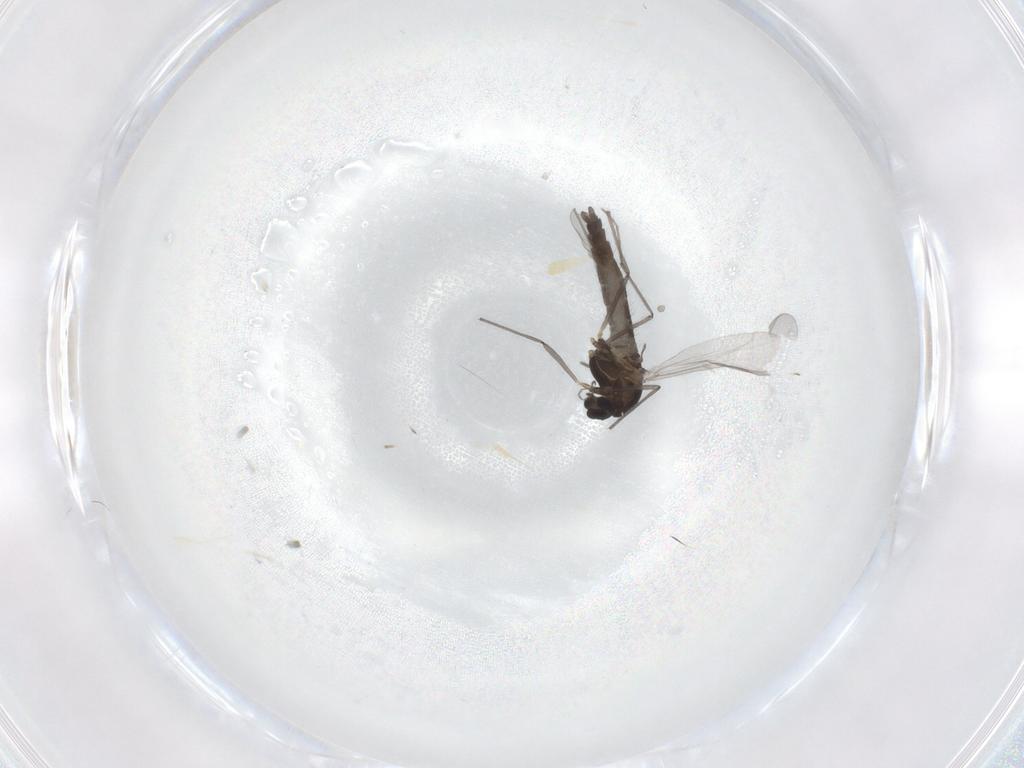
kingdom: Animalia
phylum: Arthropoda
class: Insecta
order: Diptera
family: Chironomidae
